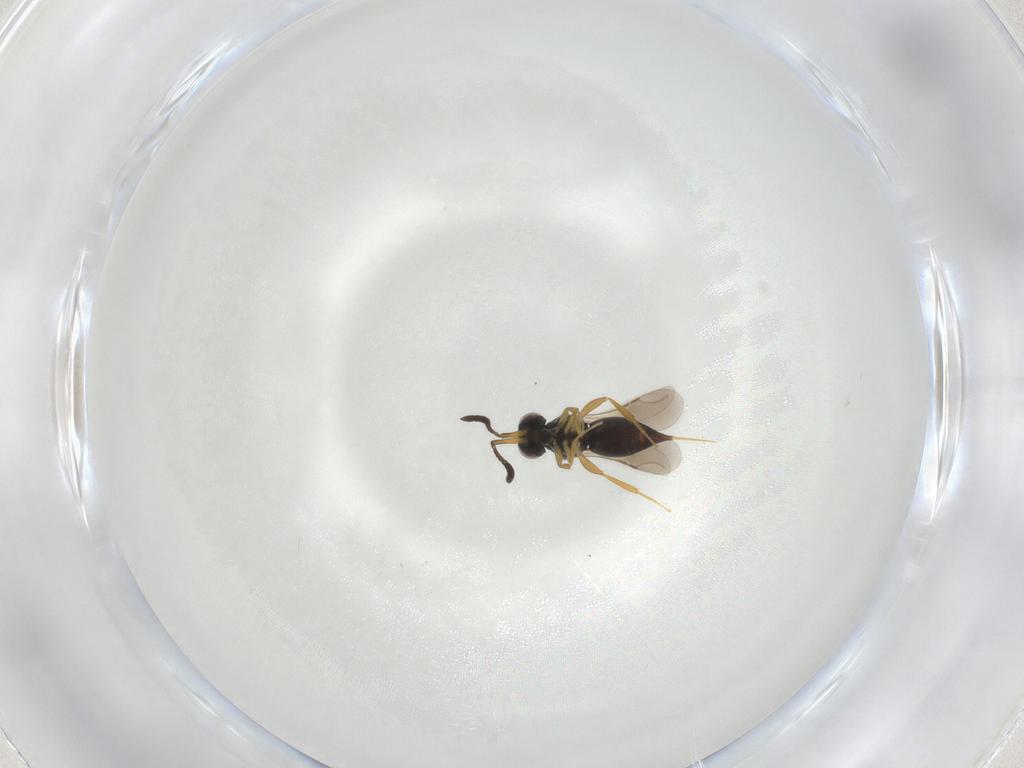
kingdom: Animalia
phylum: Arthropoda
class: Insecta
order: Hymenoptera
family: Ceraphronidae
